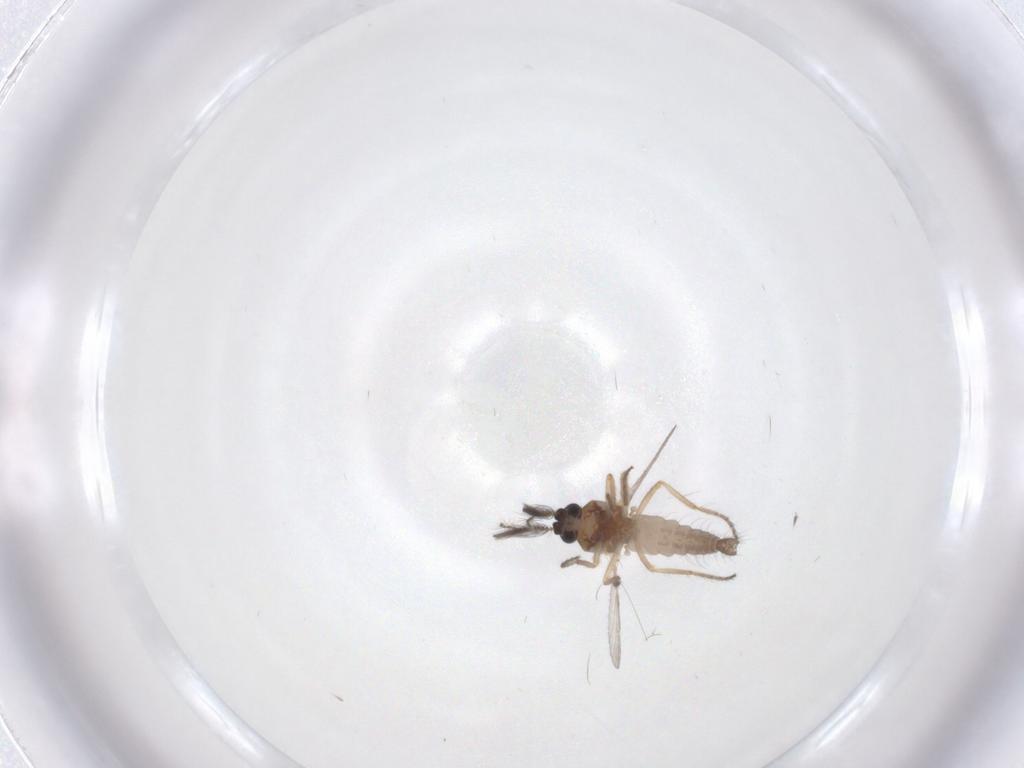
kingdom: Animalia
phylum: Arthropoda
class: Insecta
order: Diptera
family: Ceratopogonidae
